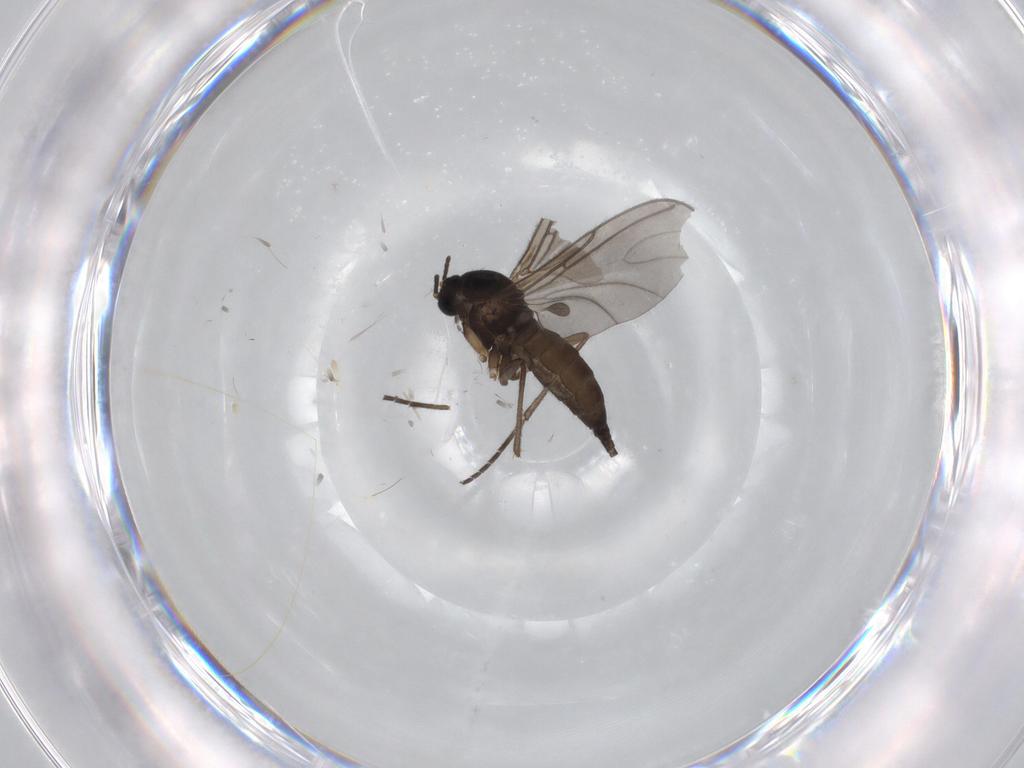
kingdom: Animalia
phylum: Arthropoda
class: Insecta
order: Diptera
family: Sciaridae
